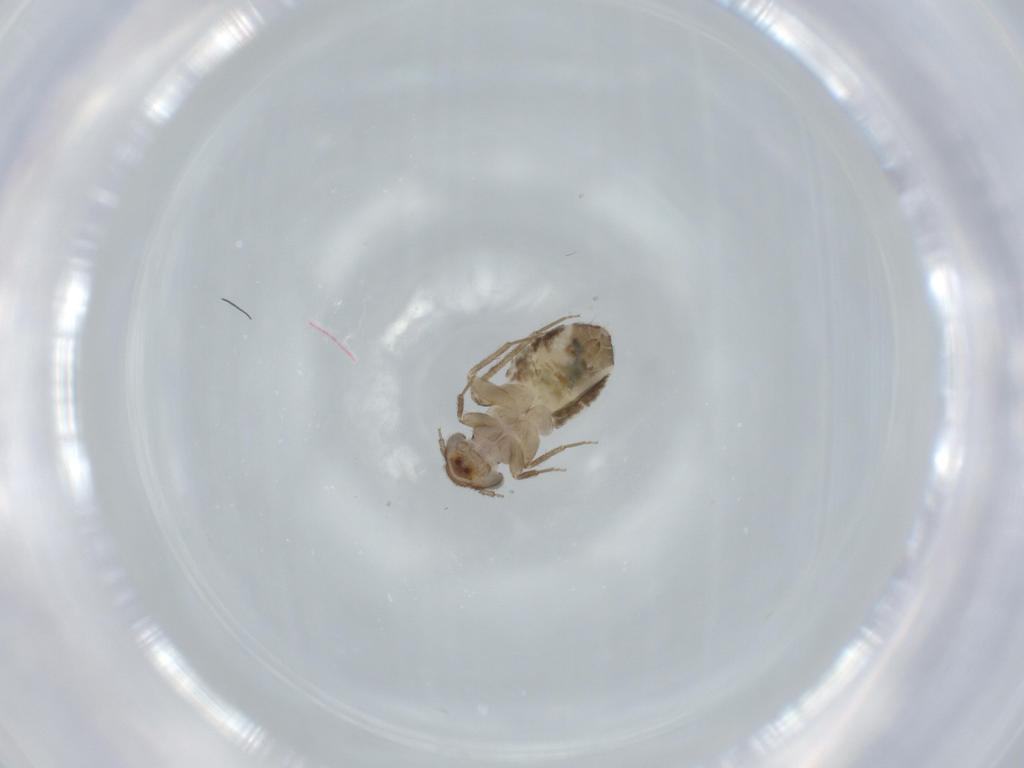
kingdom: Animalia
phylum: Arthropoda
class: Insecta
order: Psocodea
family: Lepidopsocidae
